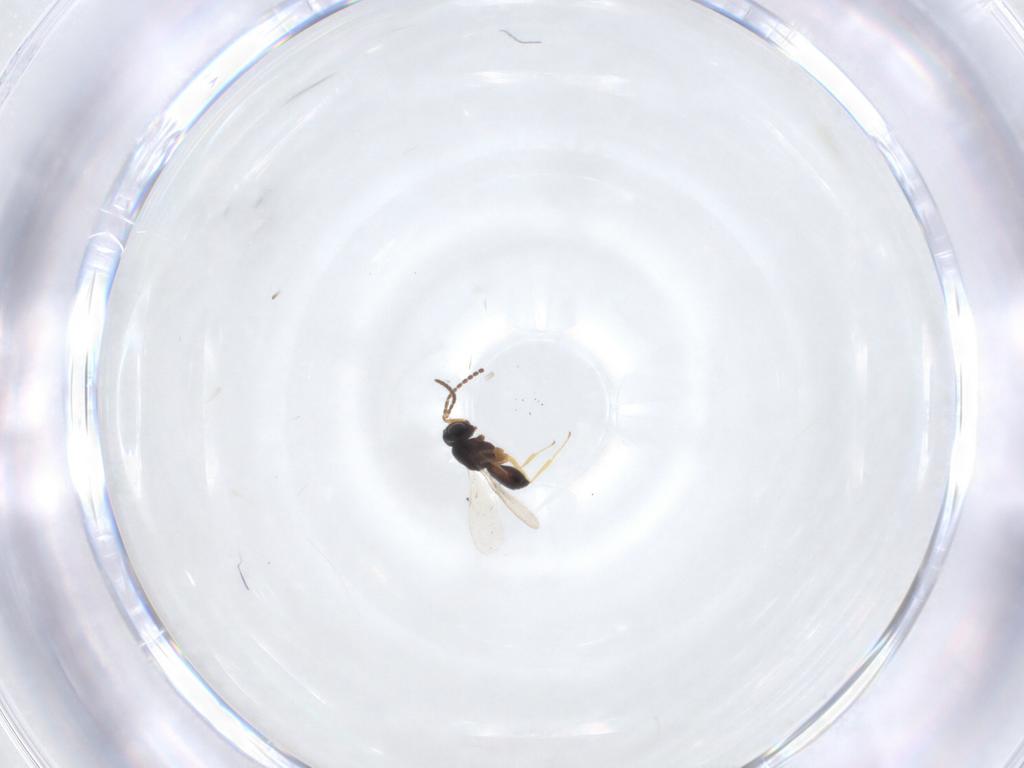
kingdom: Animalia
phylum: Arthropoda
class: Insecta
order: Hymenoptera
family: Scelionidae
